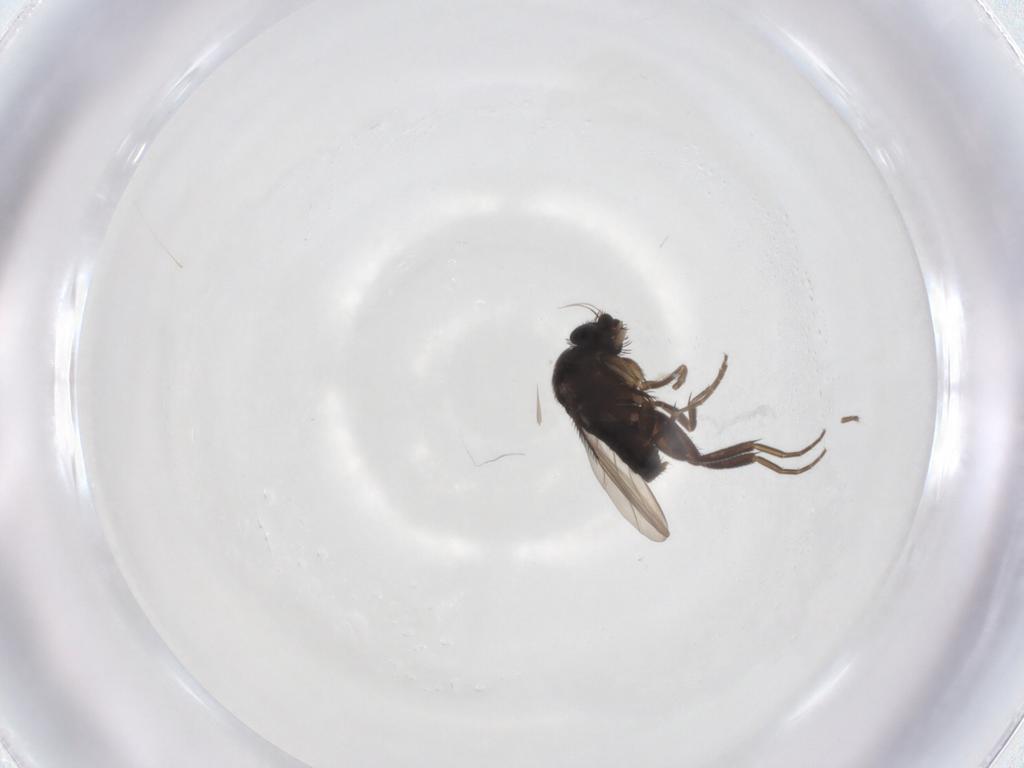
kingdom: Animalia
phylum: Arthropoda
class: Insecta
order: Diptera
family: Phoridae
